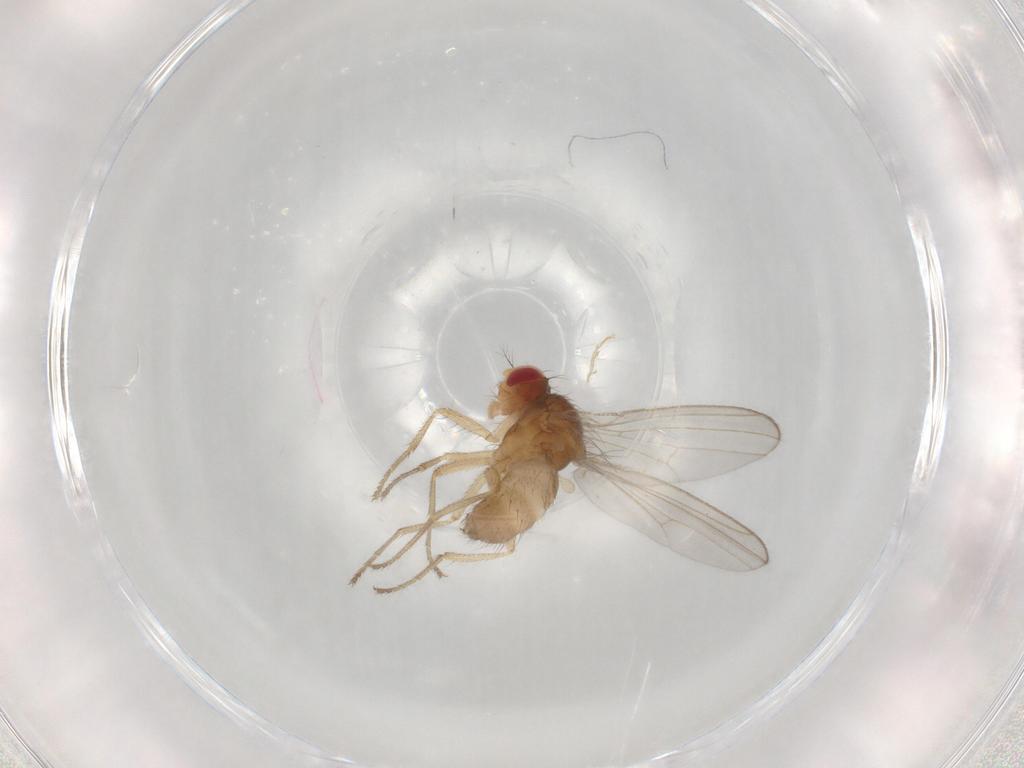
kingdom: Animalia
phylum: Arthropoda
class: Insecta
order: Diptera
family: Drosophilidae
